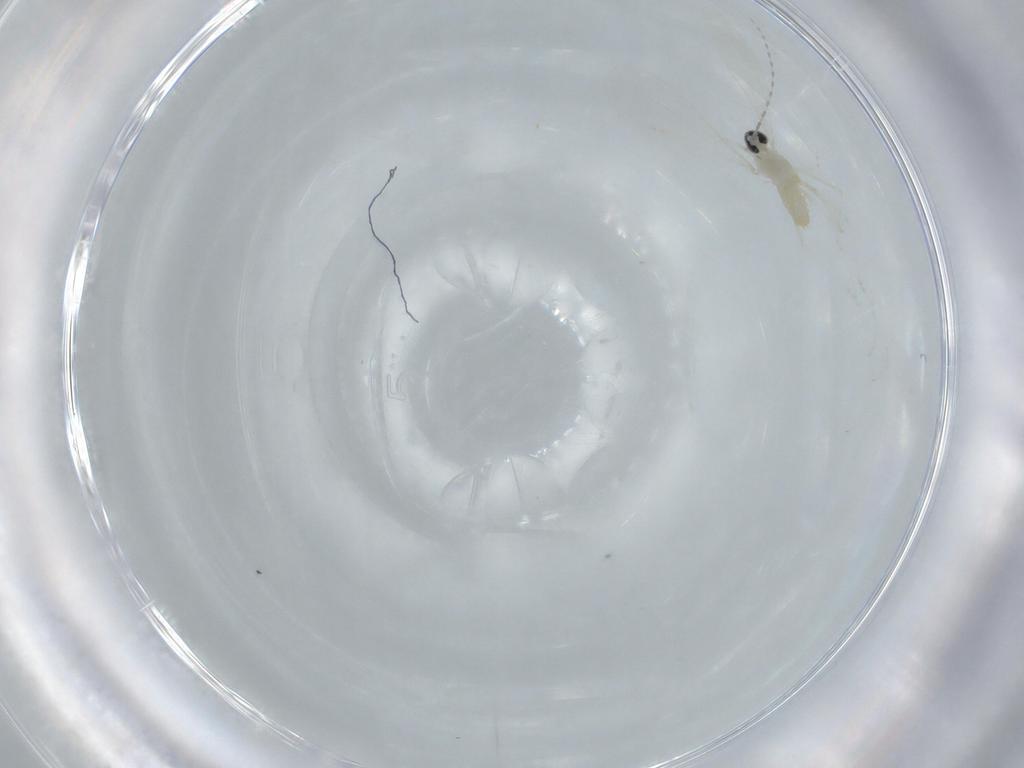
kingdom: Animalia
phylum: Arthropoda
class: Insecta
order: Diptera
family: Cecidomyiidae
